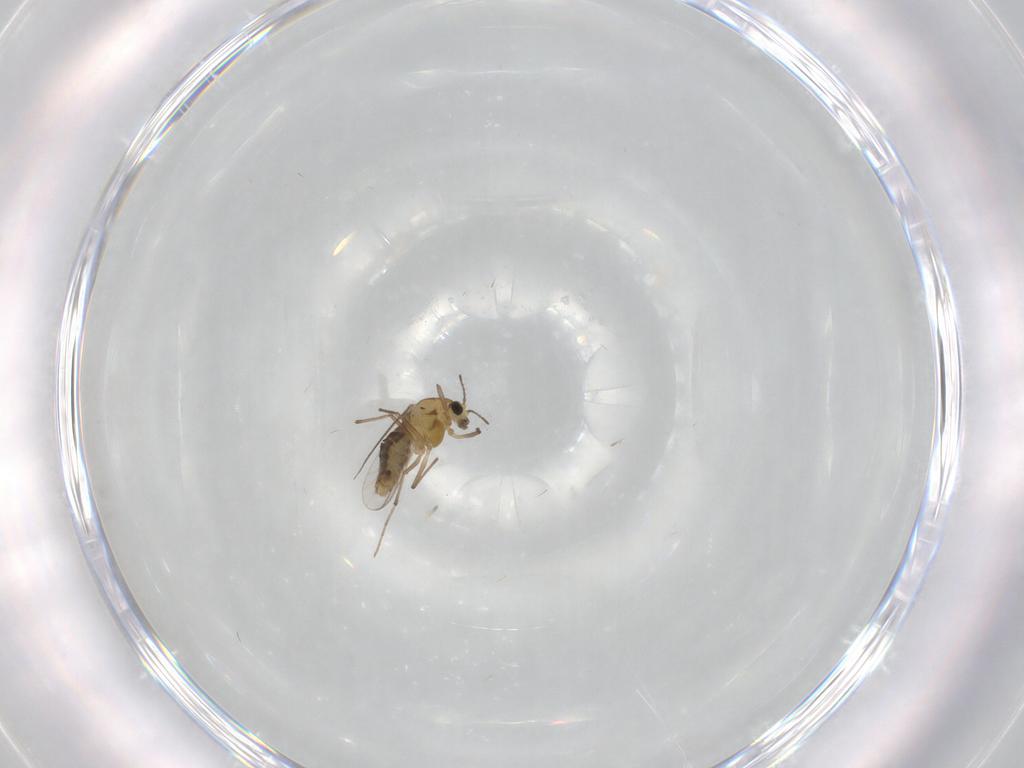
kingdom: Animalia
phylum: Arthropoda
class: Insecta
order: Diptera
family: Chironomidae
